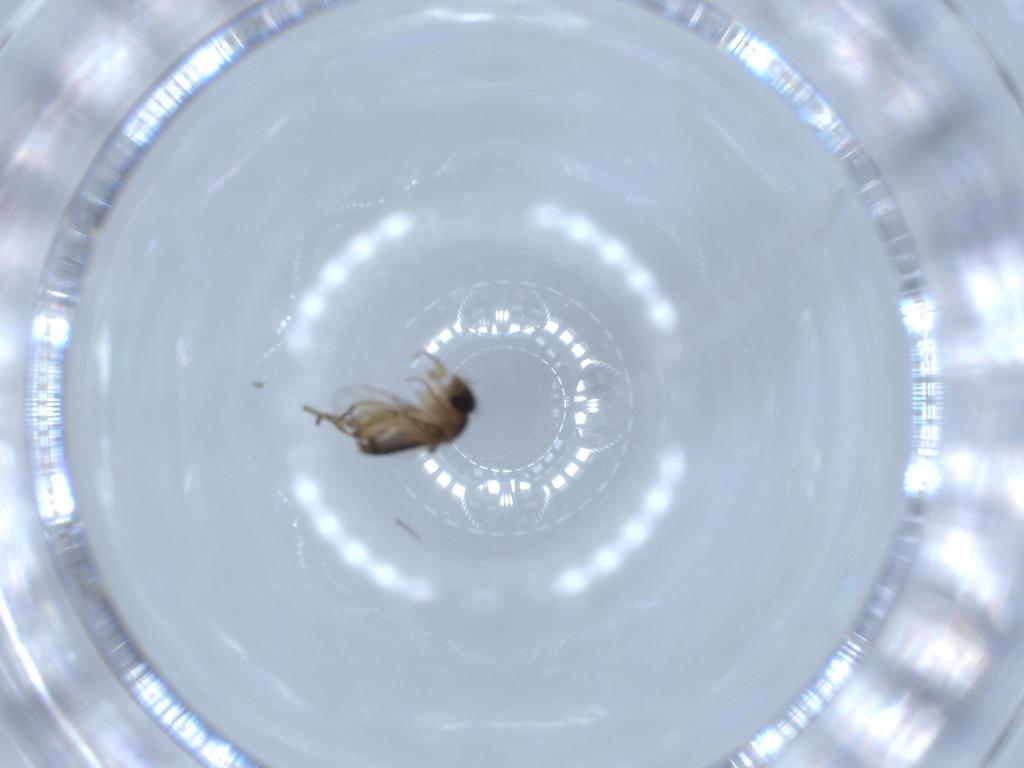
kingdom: Animalia
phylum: Arthropoda
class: Insecta
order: Diptera
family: Phoridae
